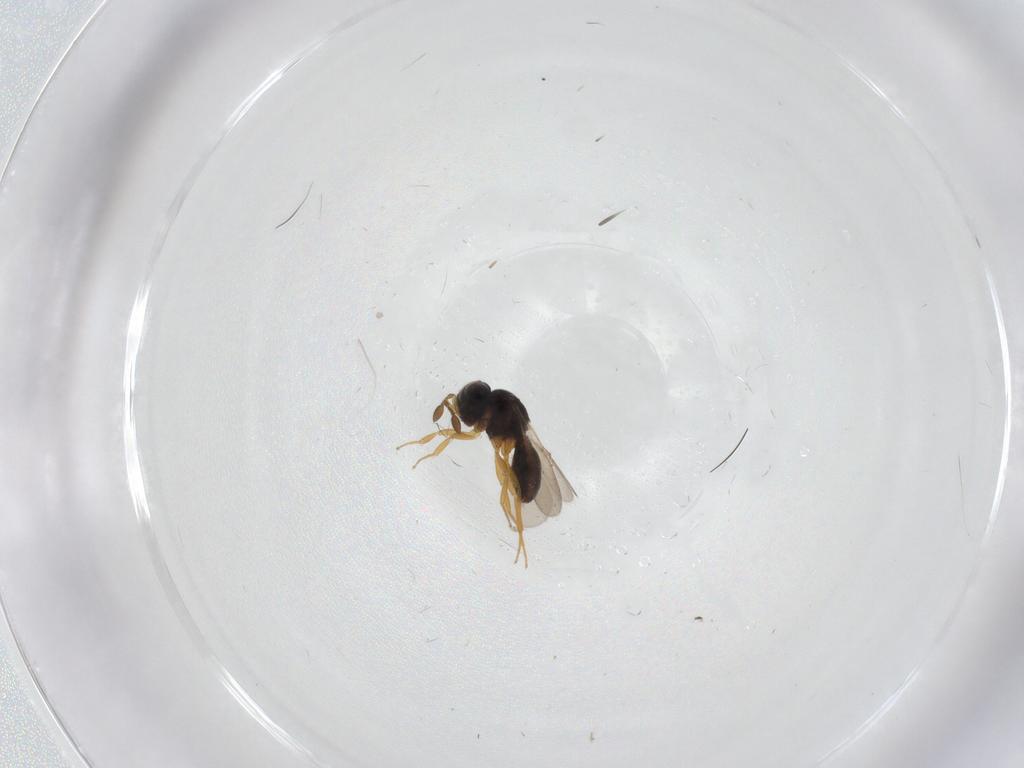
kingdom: Animalia
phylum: Arthropoda
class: Insecta
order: Hymenoptera
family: Scelionidae
